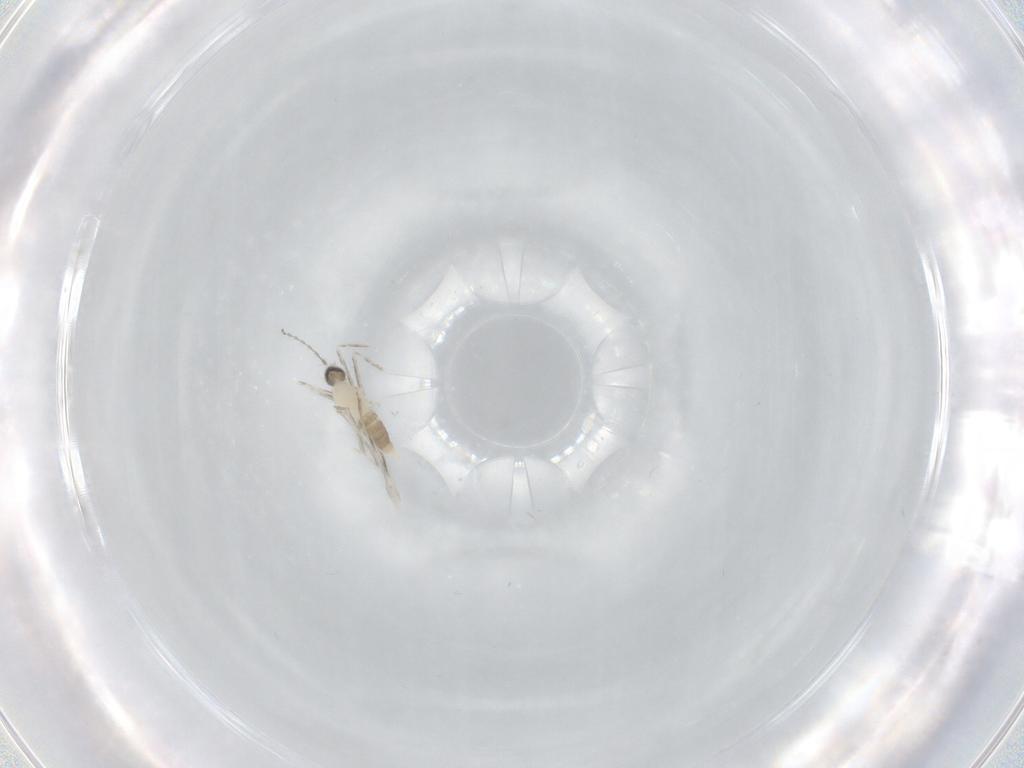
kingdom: Animalia
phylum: Arthropoda
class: Insecta
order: Diptera
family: Cecidomyiidae
